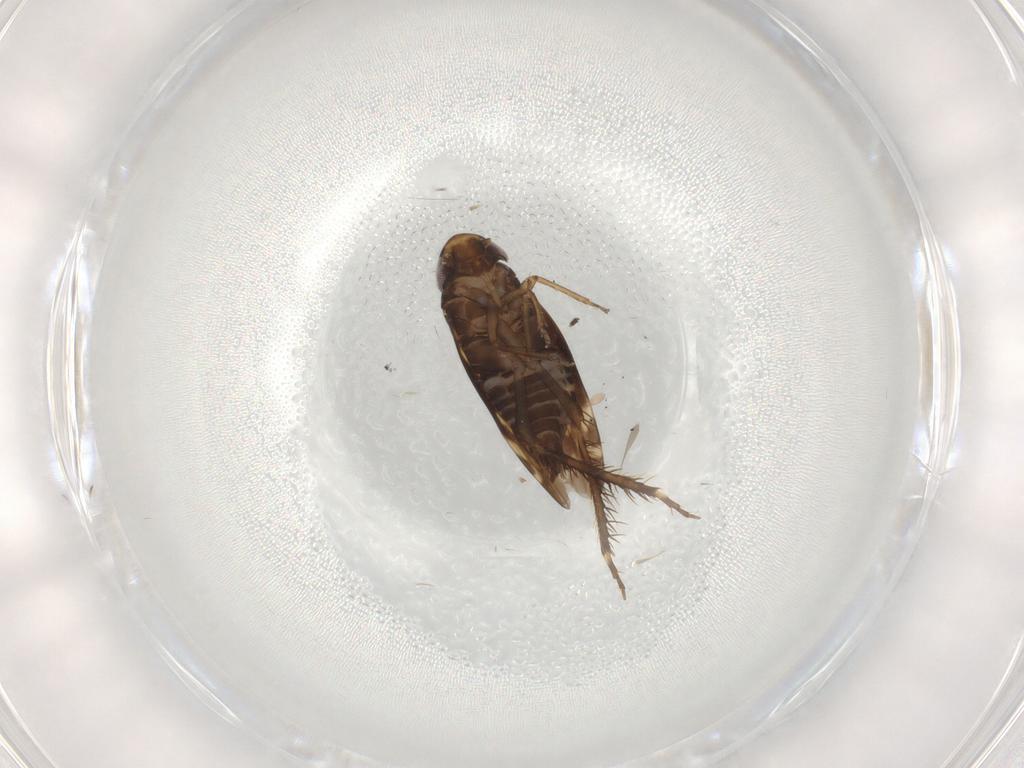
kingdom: Animalia
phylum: Arthropoda
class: Insecta
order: Hemiptera
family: Cicadellidae
